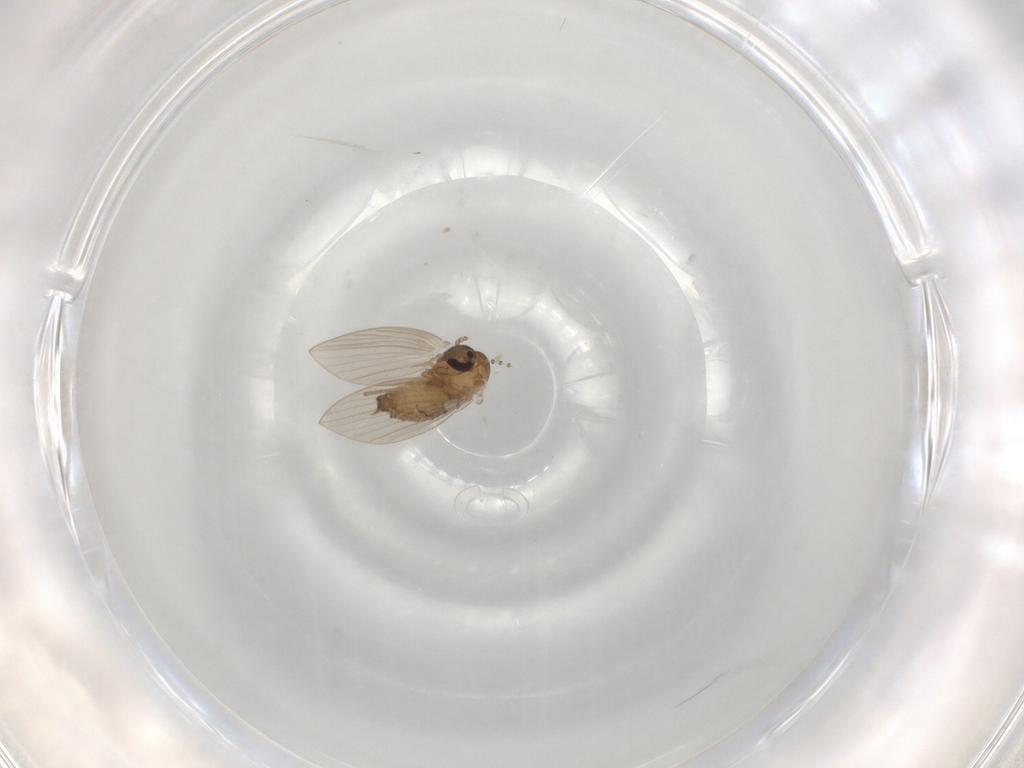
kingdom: Animalia
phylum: Arthropoda
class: Insecta
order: Diptera
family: Psychodidae
